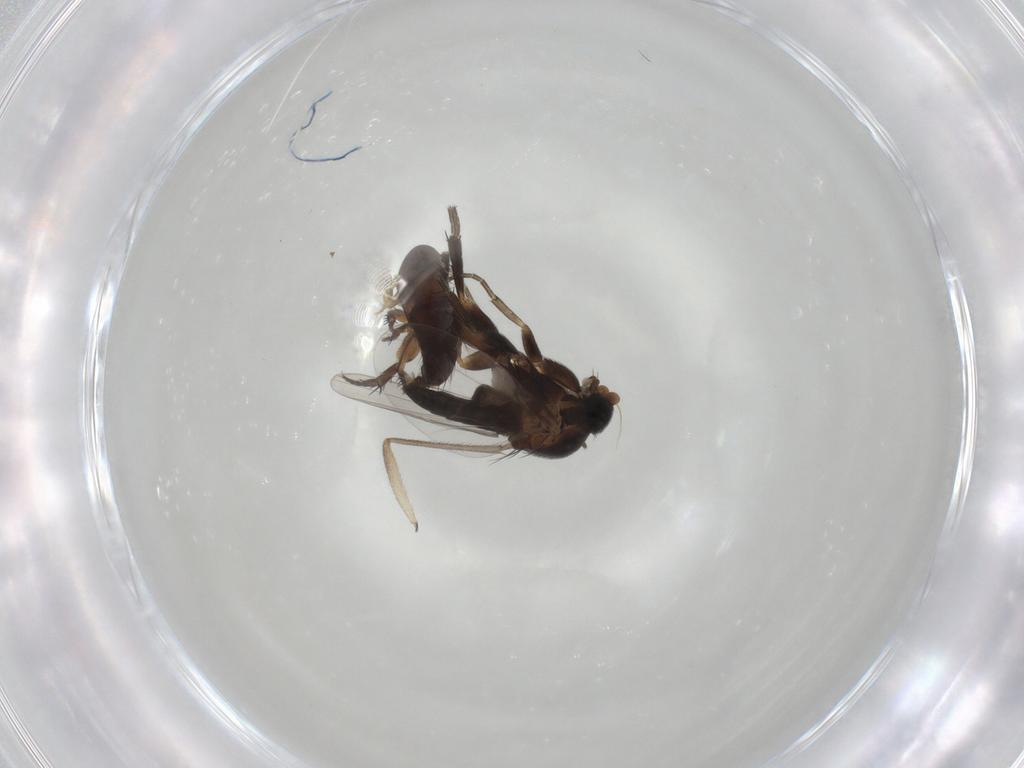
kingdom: Animalia
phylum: Arthropoda
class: Insecta
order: Diptera
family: Phoridae
